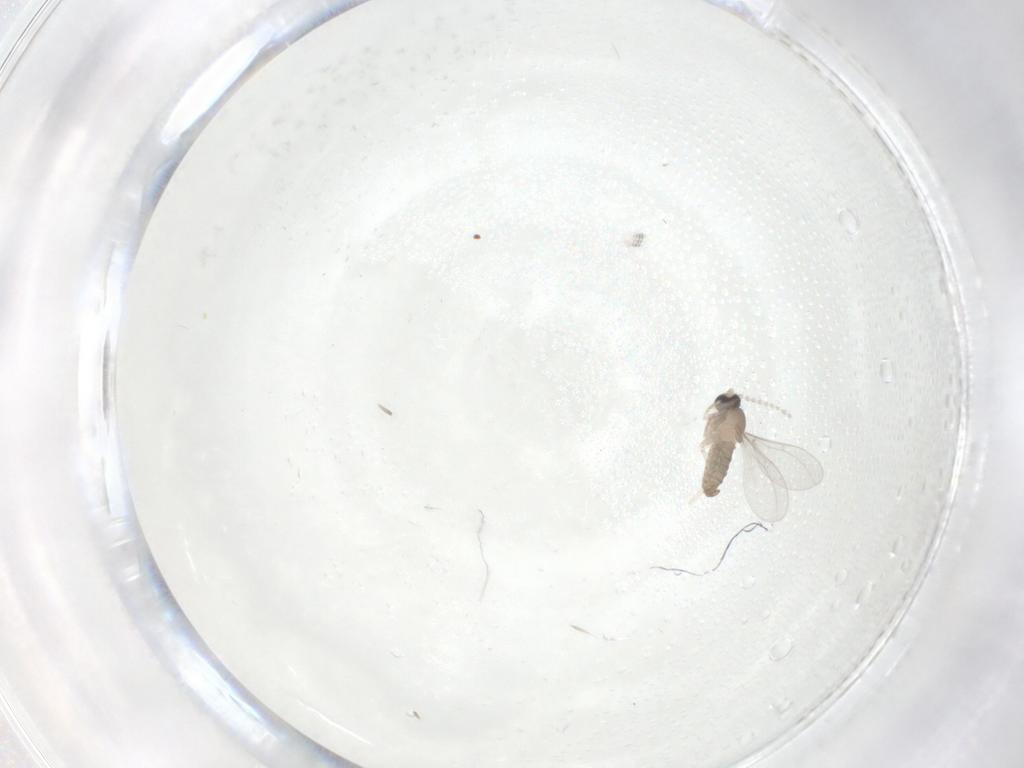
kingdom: Animalia
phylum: Arthropoda
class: Insecta
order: Diptera
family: Chironomidae
